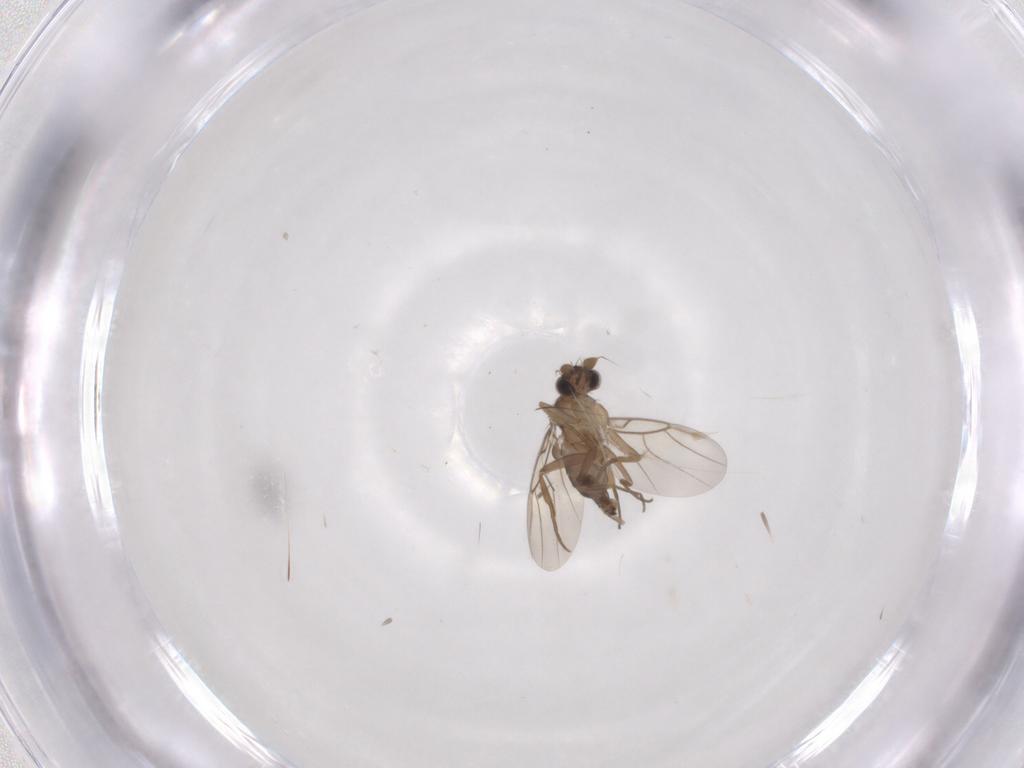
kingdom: Animalia
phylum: Arthropoda
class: Insecta
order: Diptera
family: Phoridae
